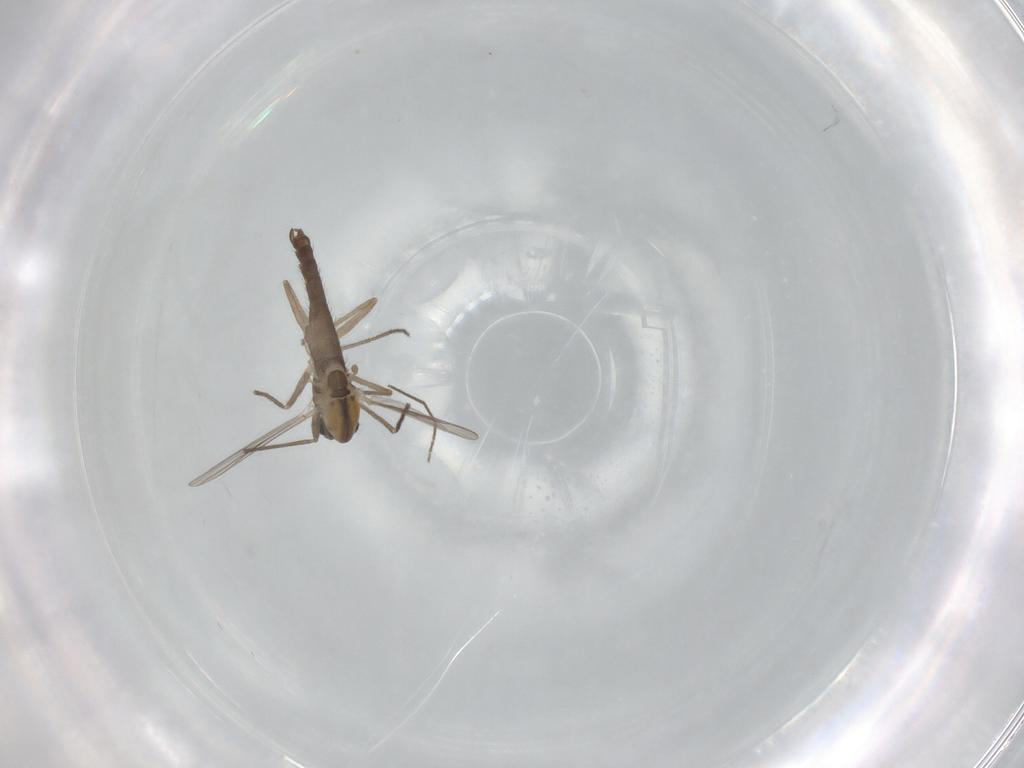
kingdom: Animalia
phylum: Arthropoda
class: Insecta
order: Diptera
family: Chironomidae
